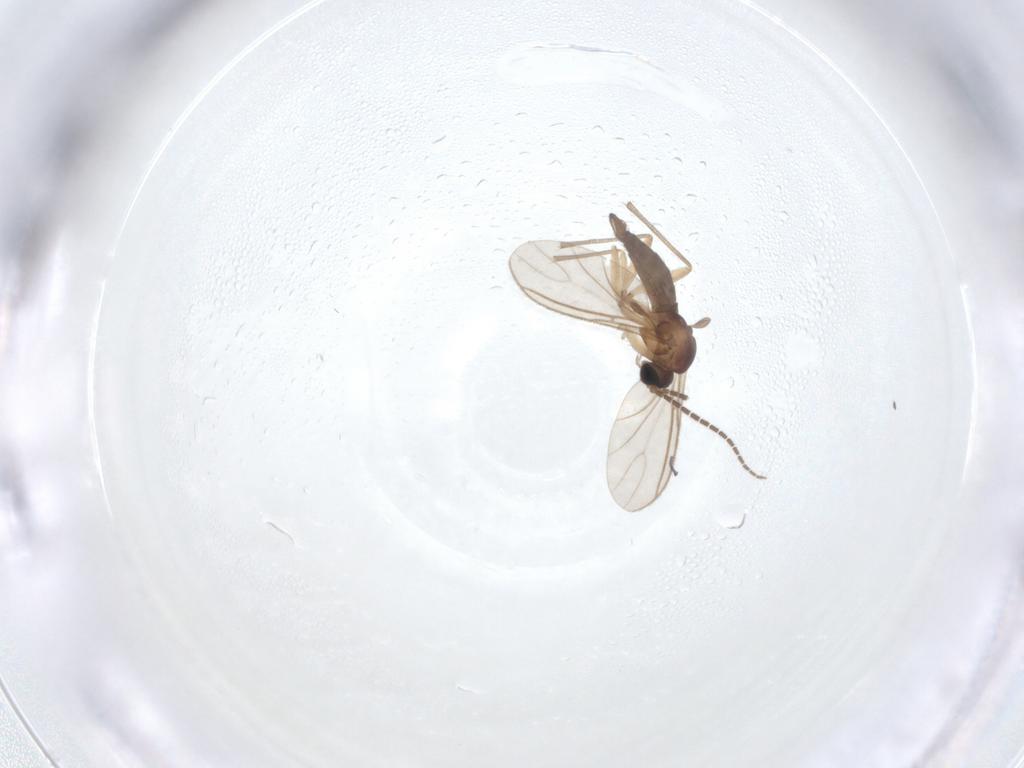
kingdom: Animalia
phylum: Arthropoda
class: Insecta
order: Diptera
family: Sciaridae
